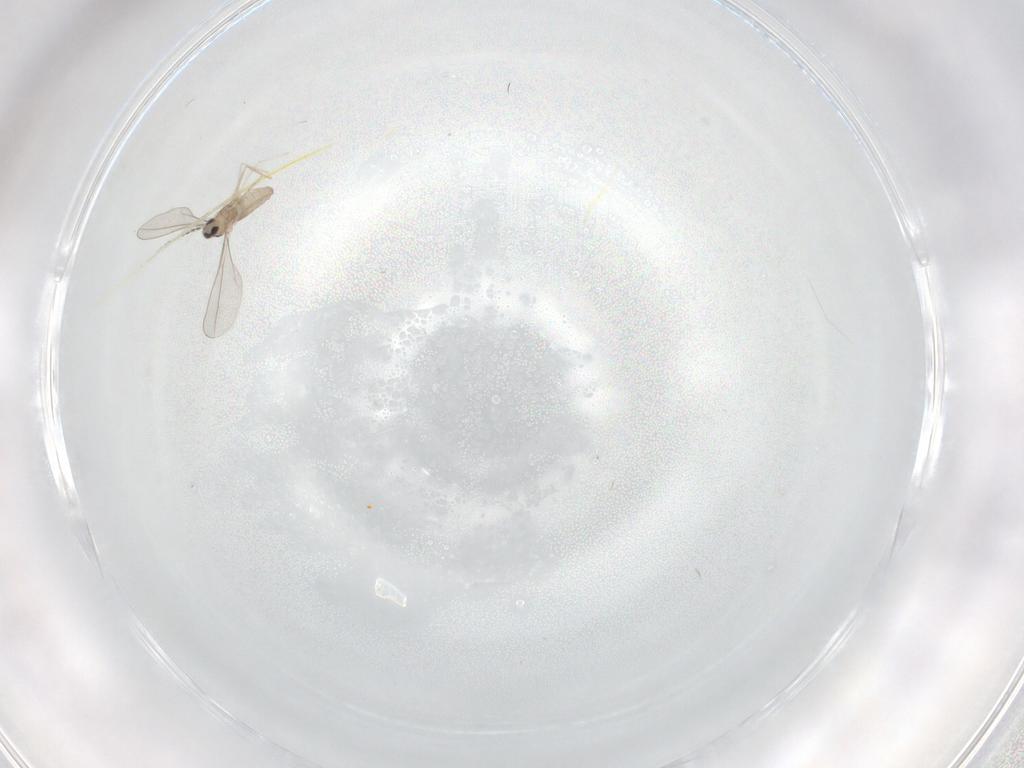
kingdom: Animalia
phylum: Arthropoda
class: Insecta
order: Diptera
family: Cecidomyiidae
